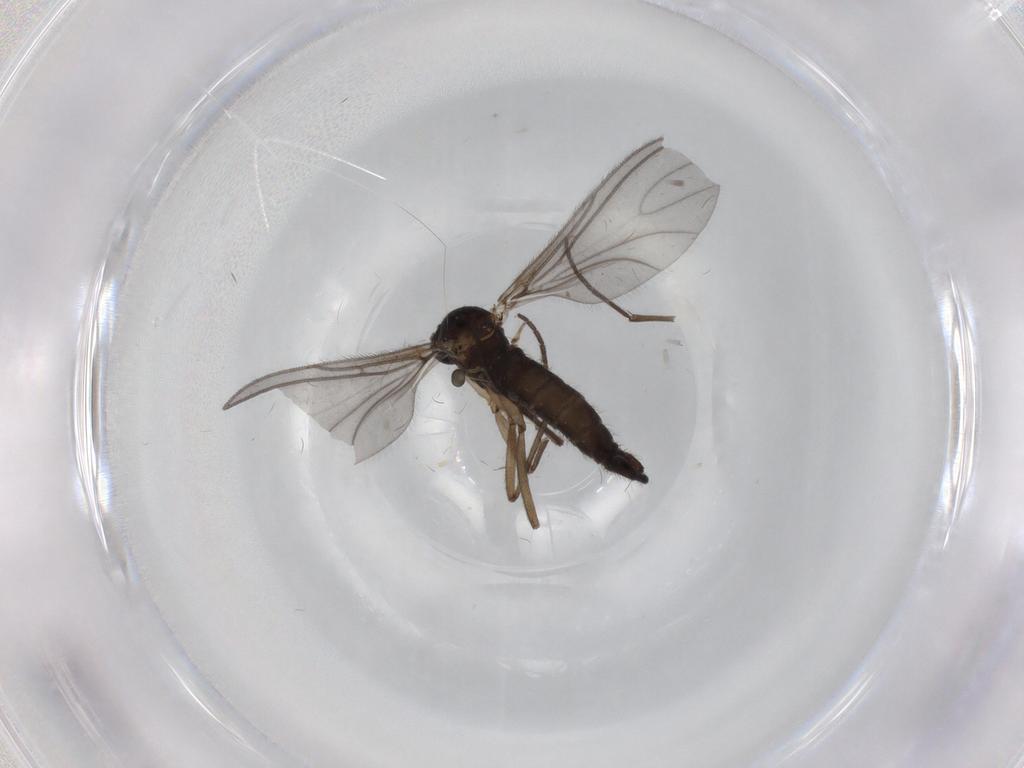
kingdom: Animalia
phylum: Arthropoda
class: Insecta
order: Diptera
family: Sciaridae
